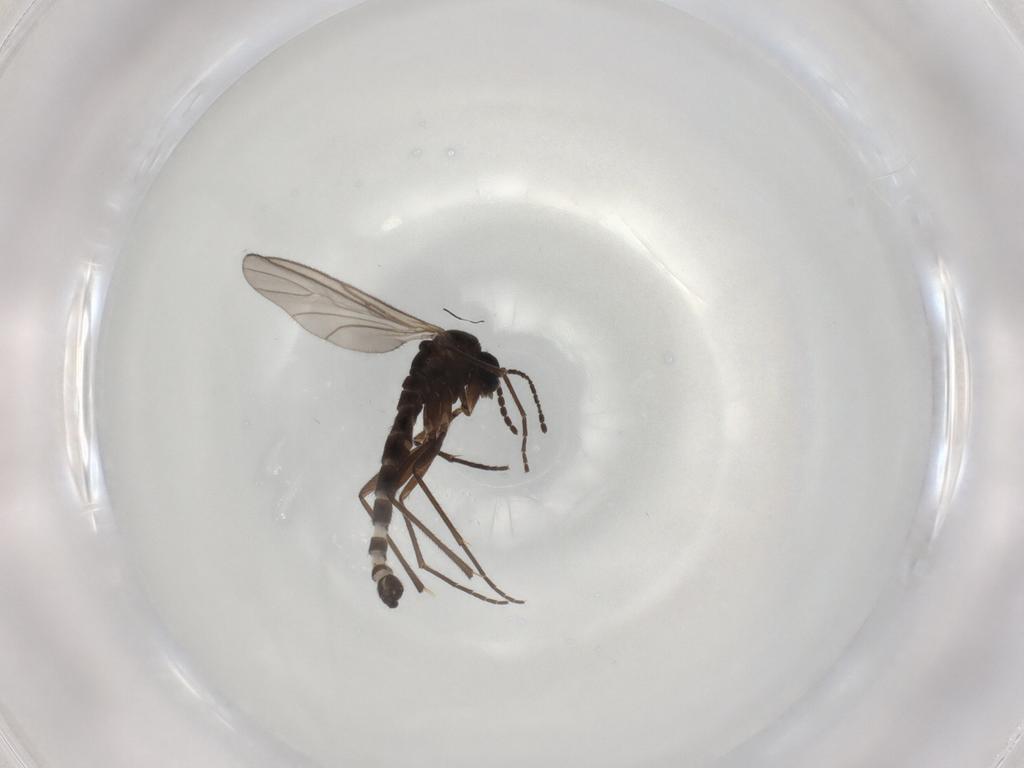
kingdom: Animalia
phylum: Arthropoda
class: Insecta
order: Diptera
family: Sciaridae
